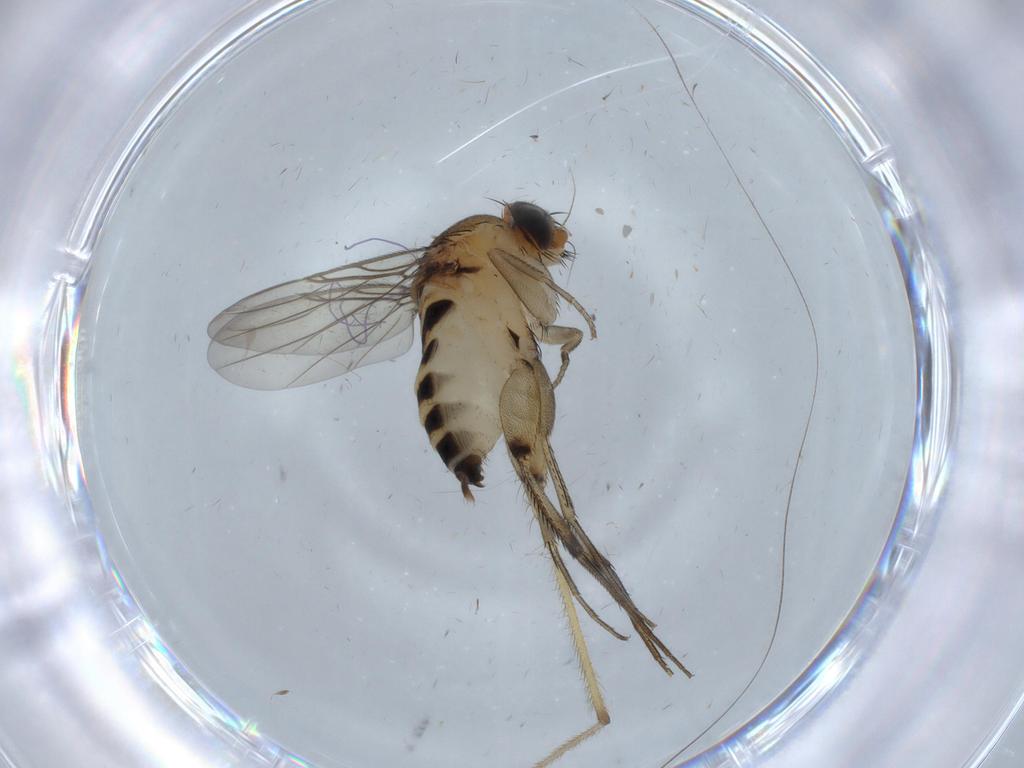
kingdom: Animalia
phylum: Arthropoda
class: Insecta
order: Diptera
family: Phoridae
